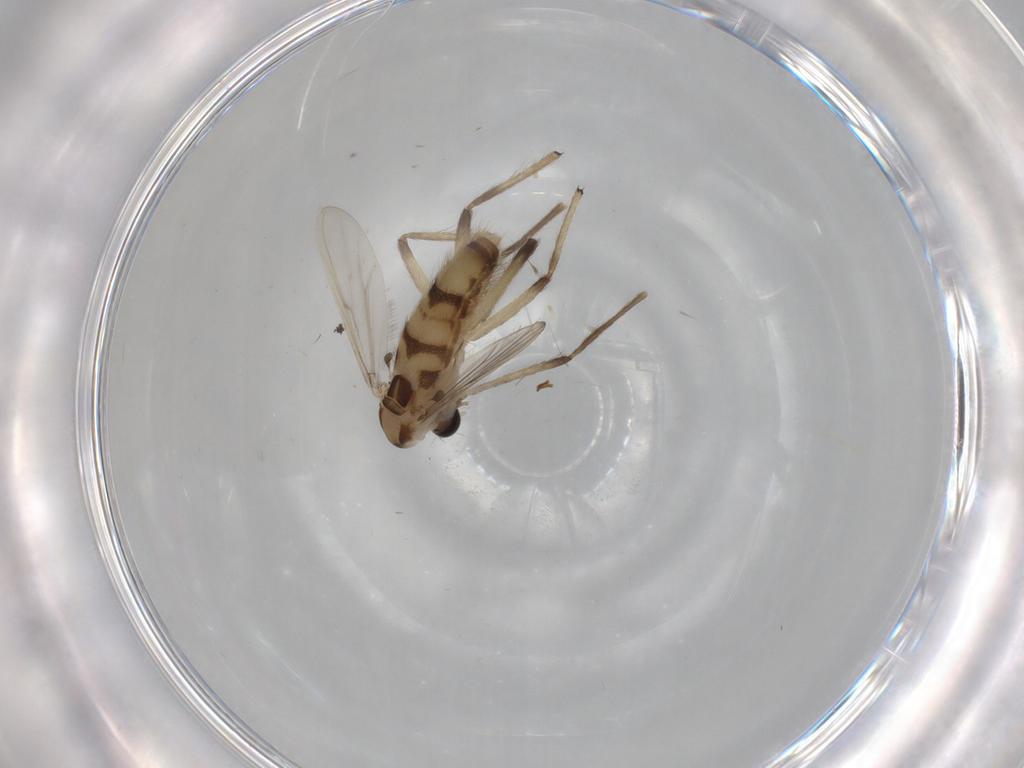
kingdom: Animalia
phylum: Arthropoda
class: Insecta
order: Diptera
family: Chironomidae
